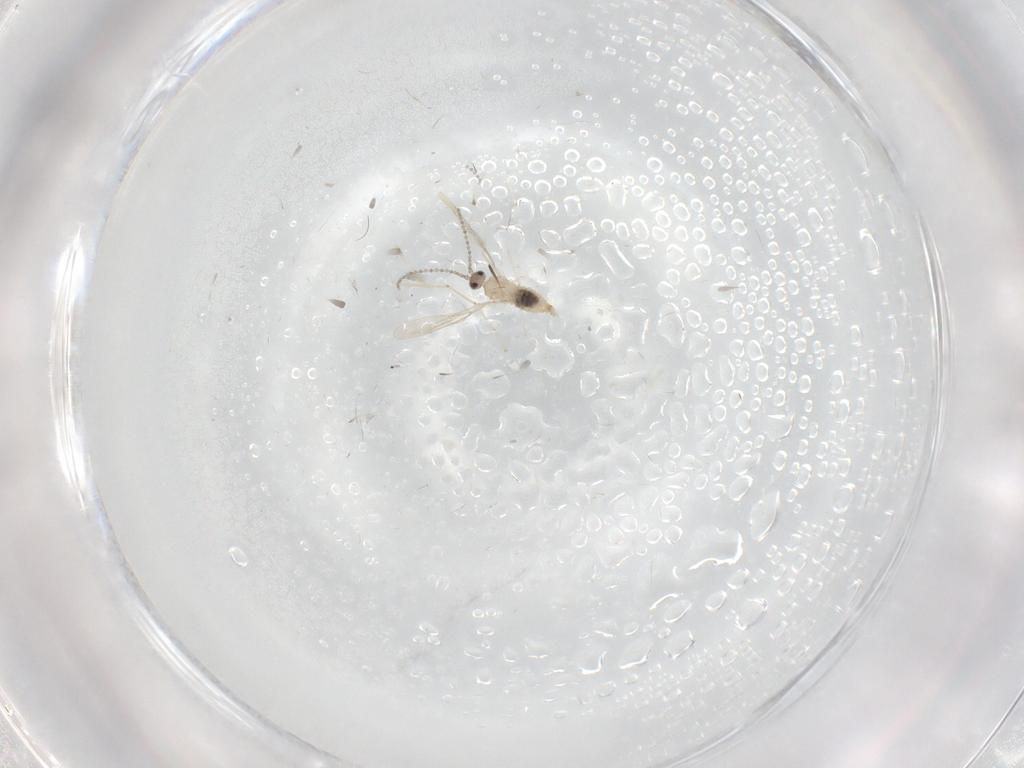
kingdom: Animalia
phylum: Arthropoda
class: Insecta
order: Diptera
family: Cecidomyiidae
